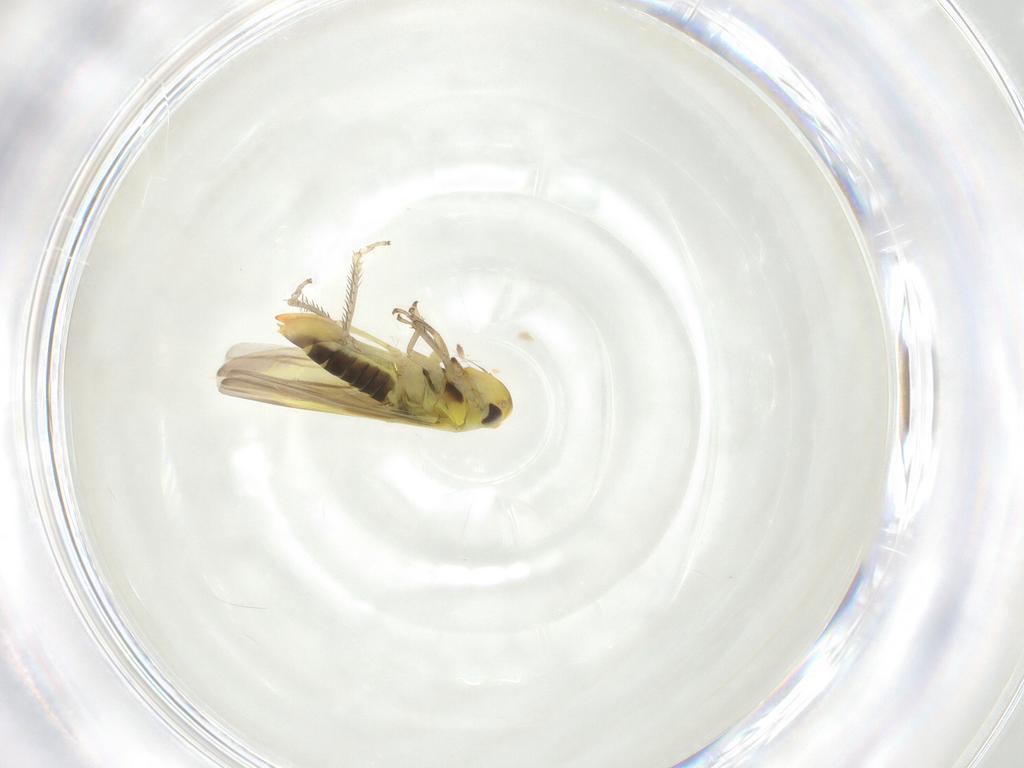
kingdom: Animalia
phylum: Arthropoda
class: Insecta
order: Hemiptera
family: Cicadellidae
